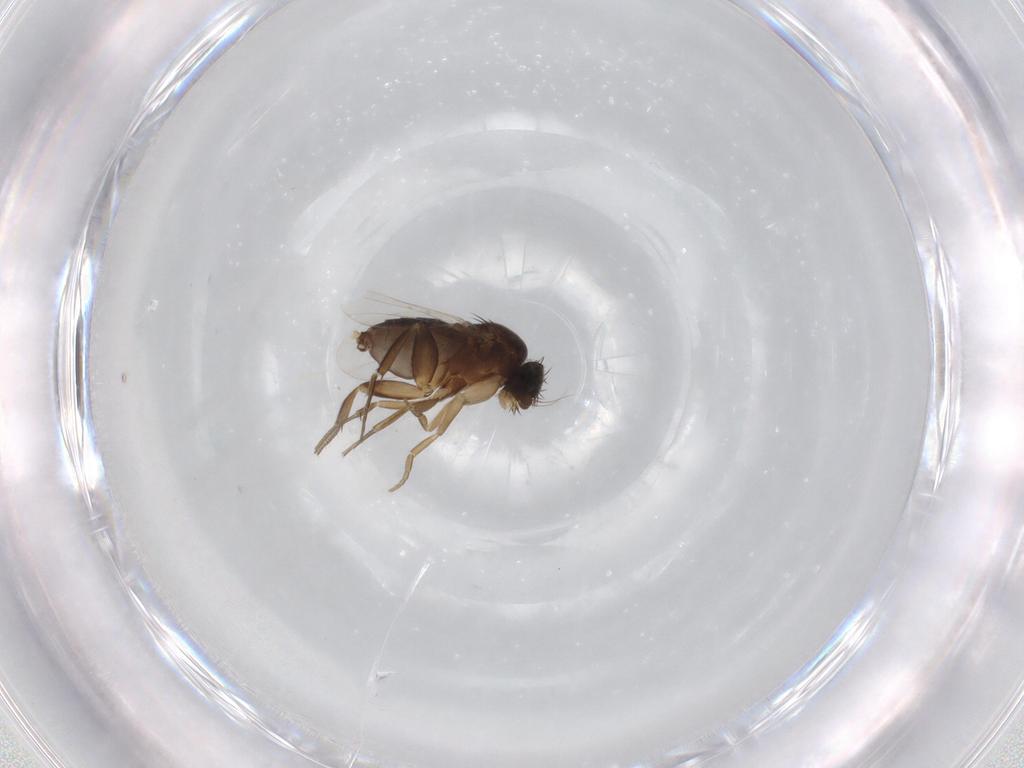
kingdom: Animalia
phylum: Arthropoda
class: Insecta
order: Diptera
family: Phoridae
